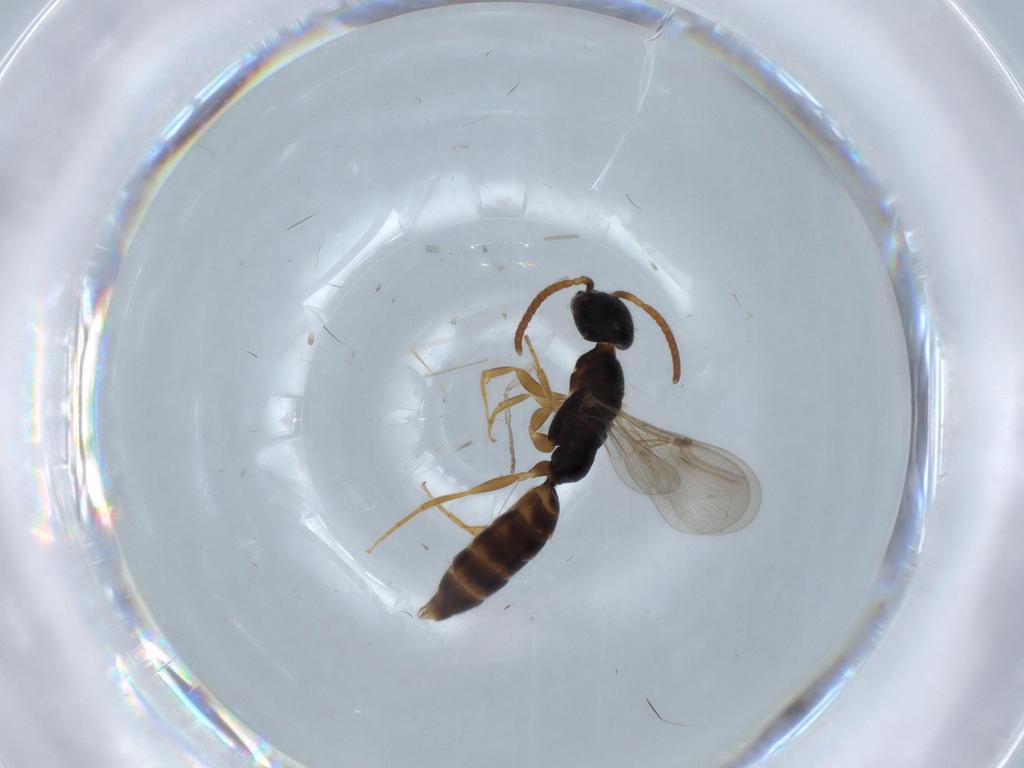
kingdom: Animalia
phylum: Arthropoda
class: Insecta
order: Hymenoptera
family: Bethylidae
